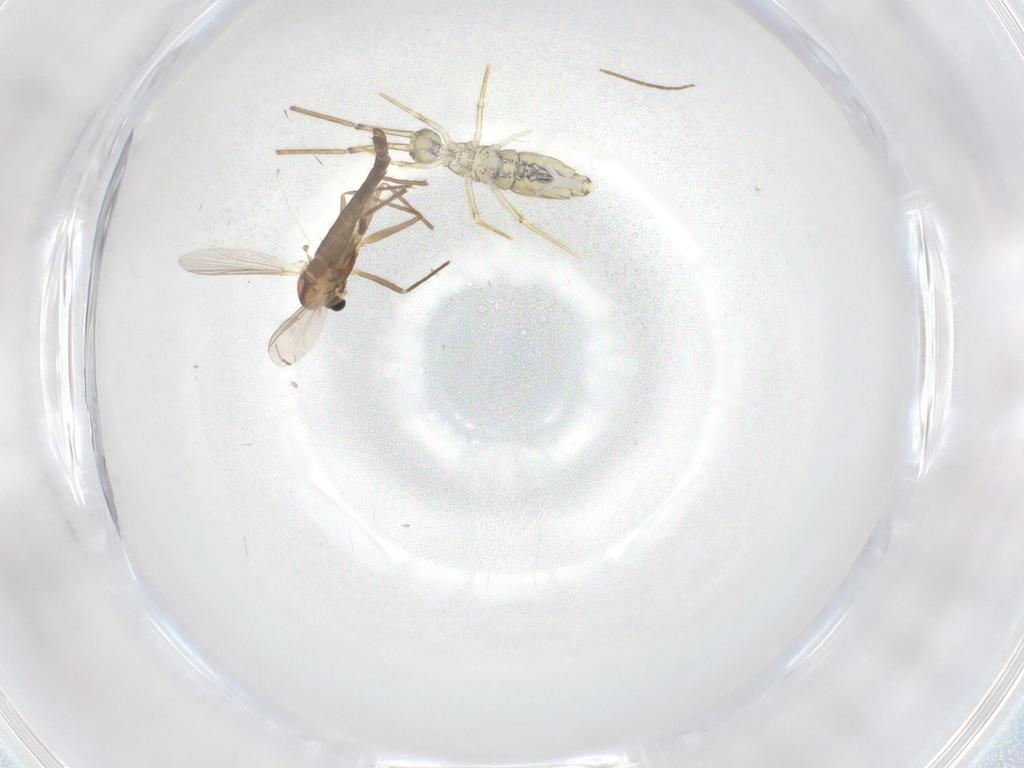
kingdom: Animalia
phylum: Arthropoda
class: Insecta
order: Diptera
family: Chironomidae
